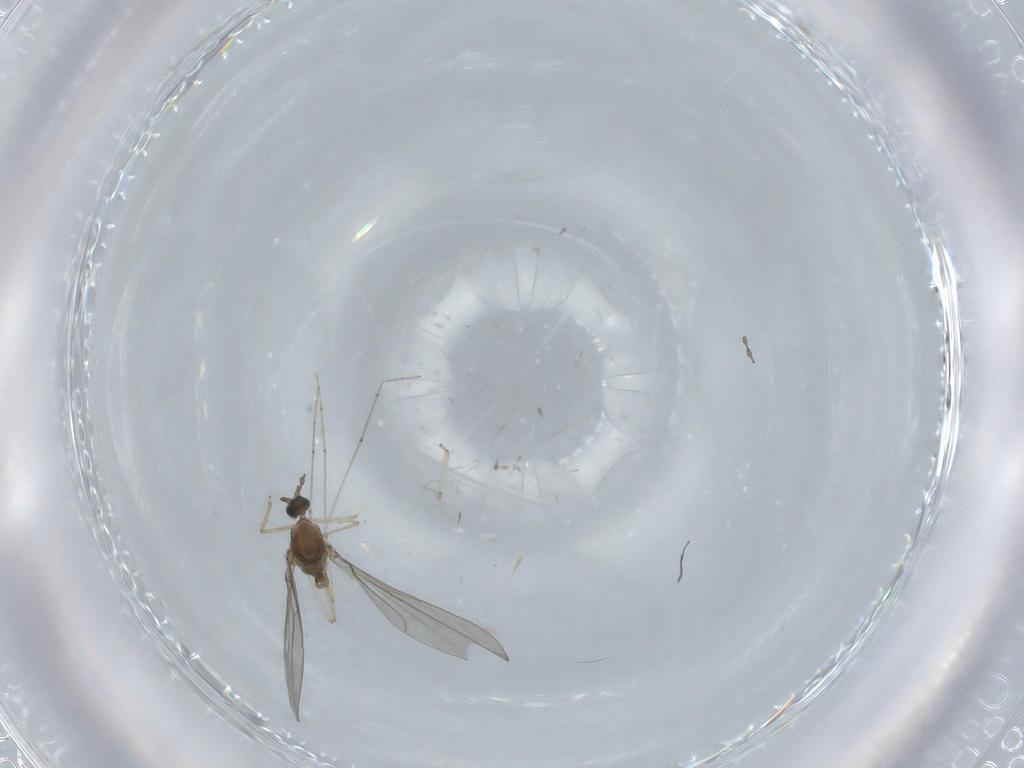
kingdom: Animalia
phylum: Arthropoda
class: Insecta
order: Diptera
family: Cecidomyiidae
